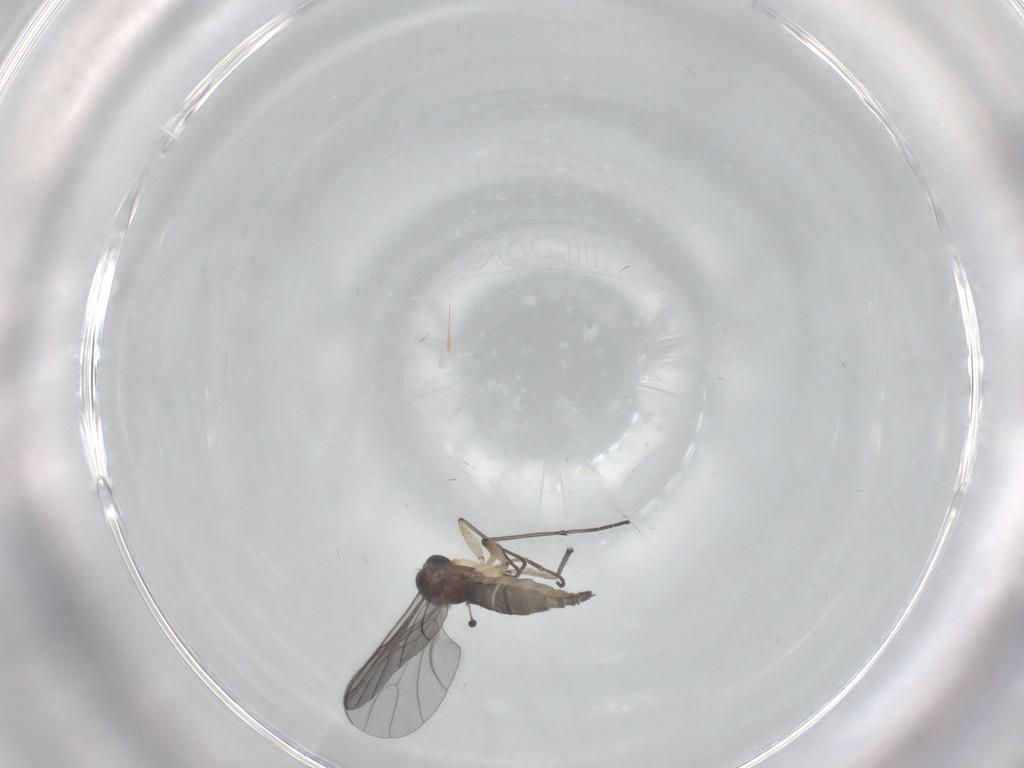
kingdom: Animalia
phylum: Arthropoda
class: Insecta
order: Diptera
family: Sciaridae
